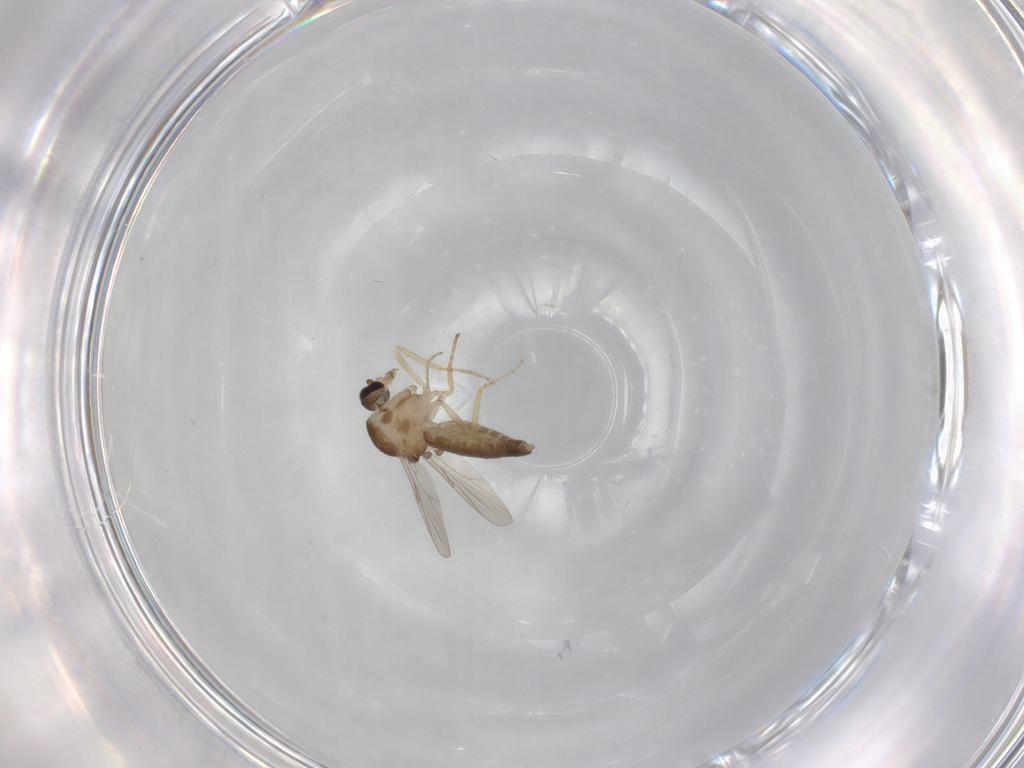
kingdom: Animalia
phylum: Arthropoda
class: Insecta
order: Diptera
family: Ceratopogonidae
